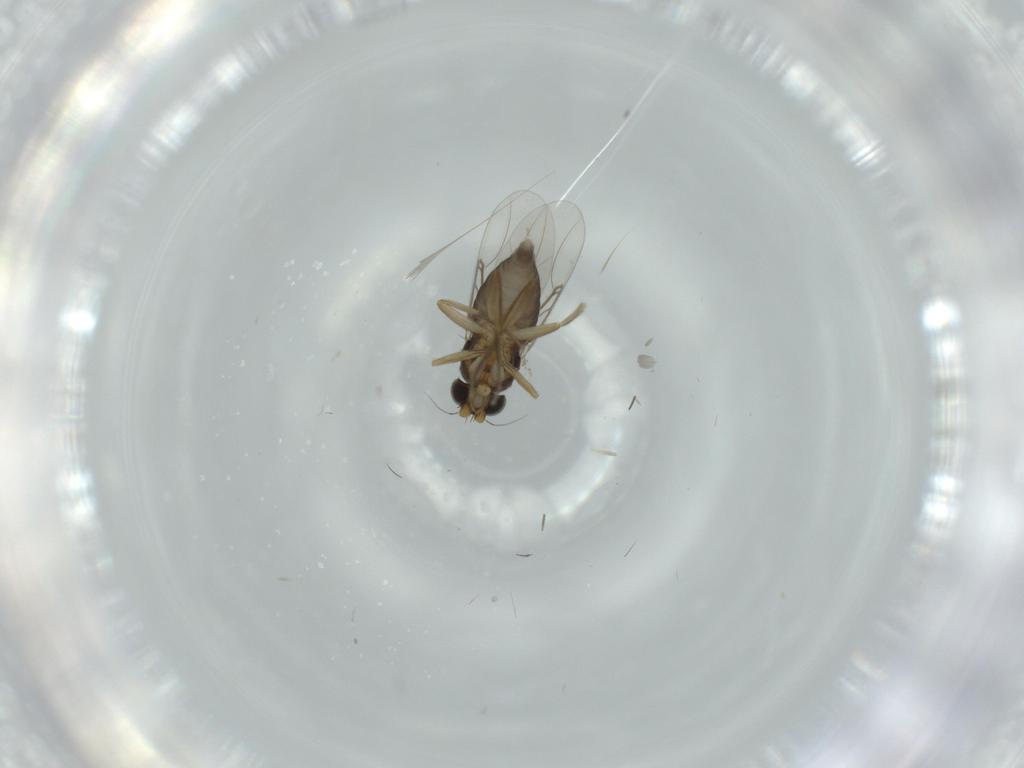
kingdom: Animalia
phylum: Arthropoda
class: Insecta
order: Diptera
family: Phoridae
